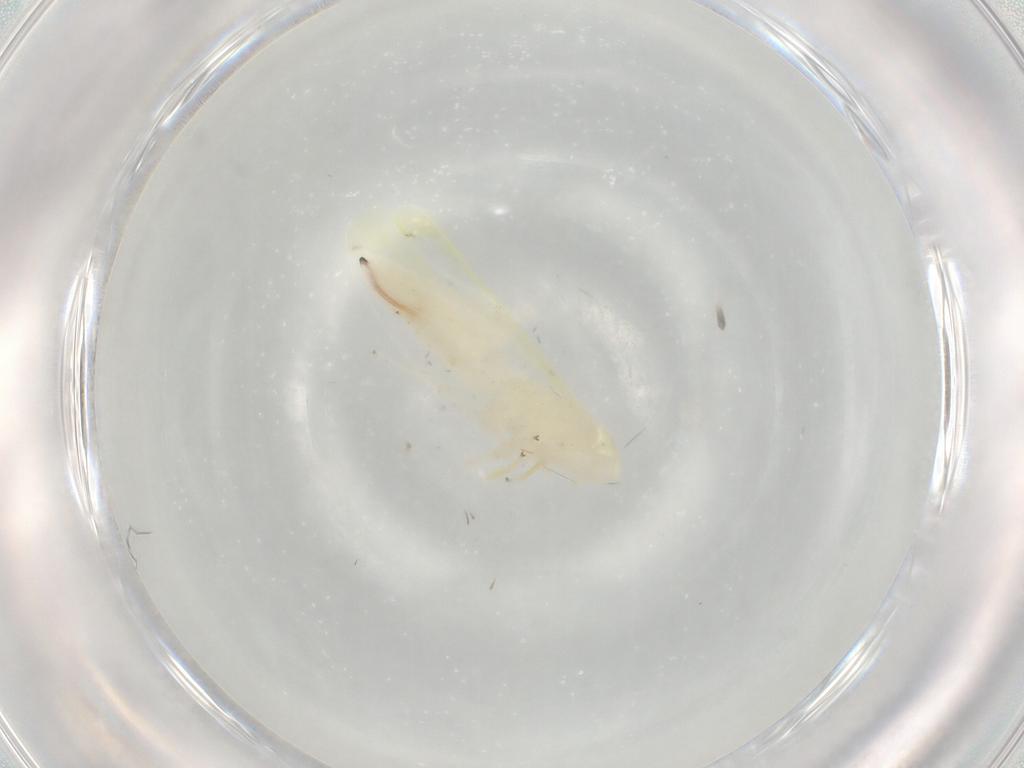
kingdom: Animalia
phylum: Arthropoda
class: Insecta
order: Hemiptera
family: Cicadellidae
